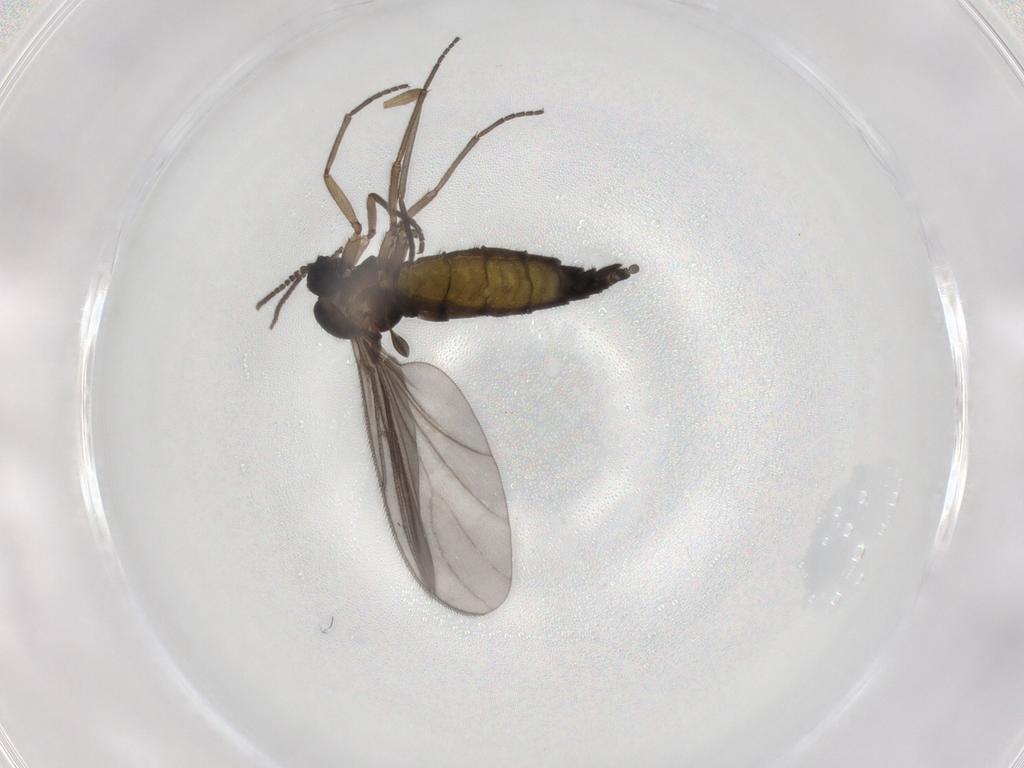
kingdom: Animalia
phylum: Arthropoda
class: Insecta
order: Diptera
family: Sciaridae
